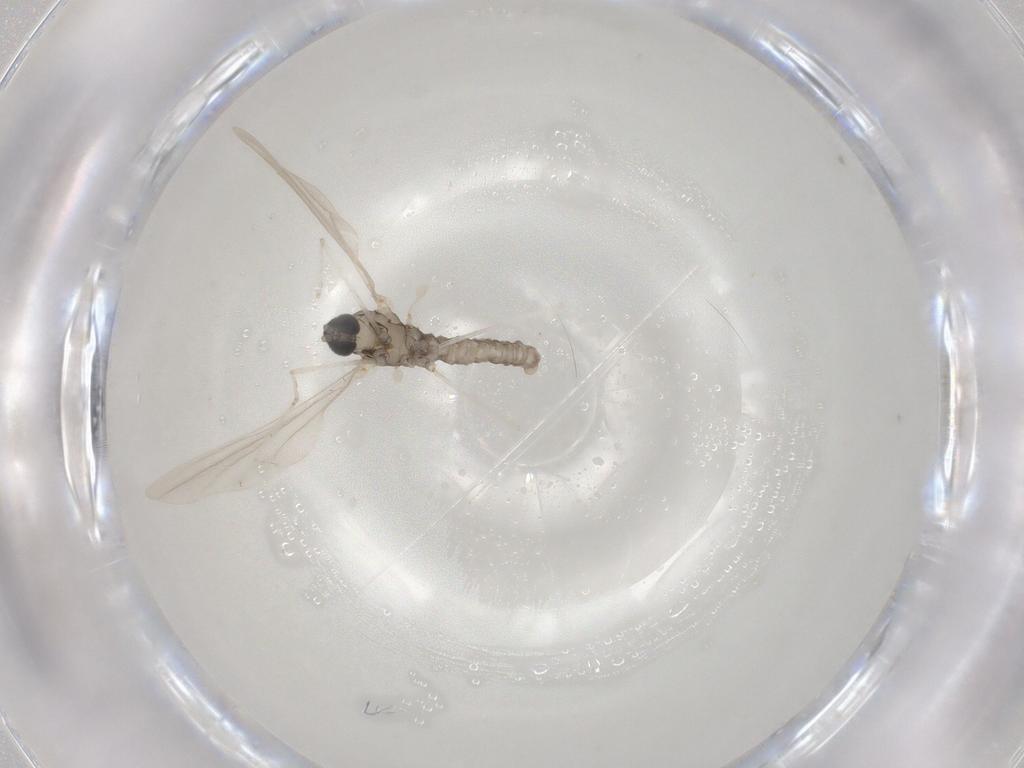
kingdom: Animalia
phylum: Arthropoda
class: Insecta
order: Diptera
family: Cecidomyiidae
